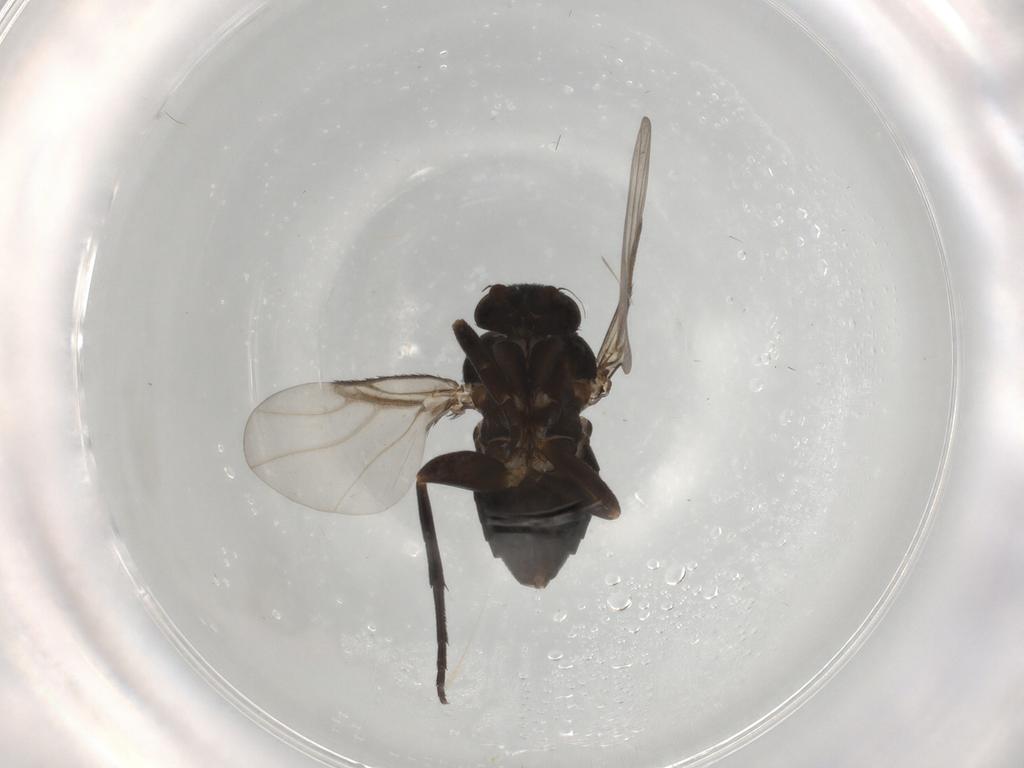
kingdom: Animalia
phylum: Arthropoda
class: Insecta
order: Diptera
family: Phoridae
